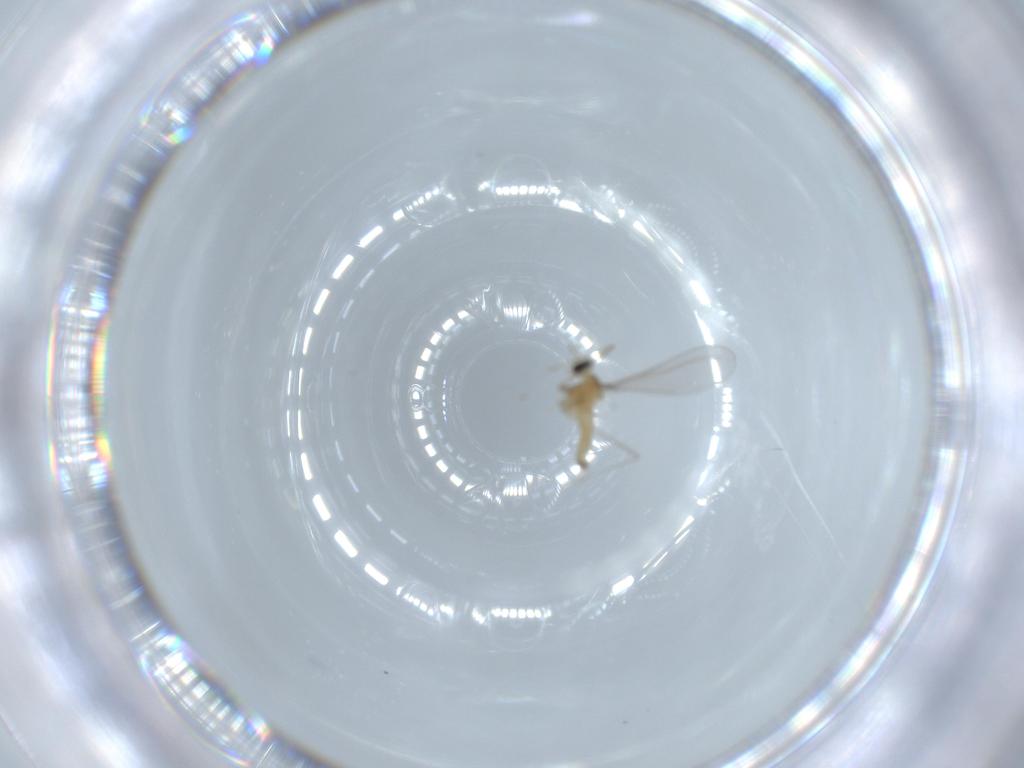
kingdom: Animalia
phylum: Arthropoda
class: Insecta
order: Diptera
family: Cecidomyiidae
